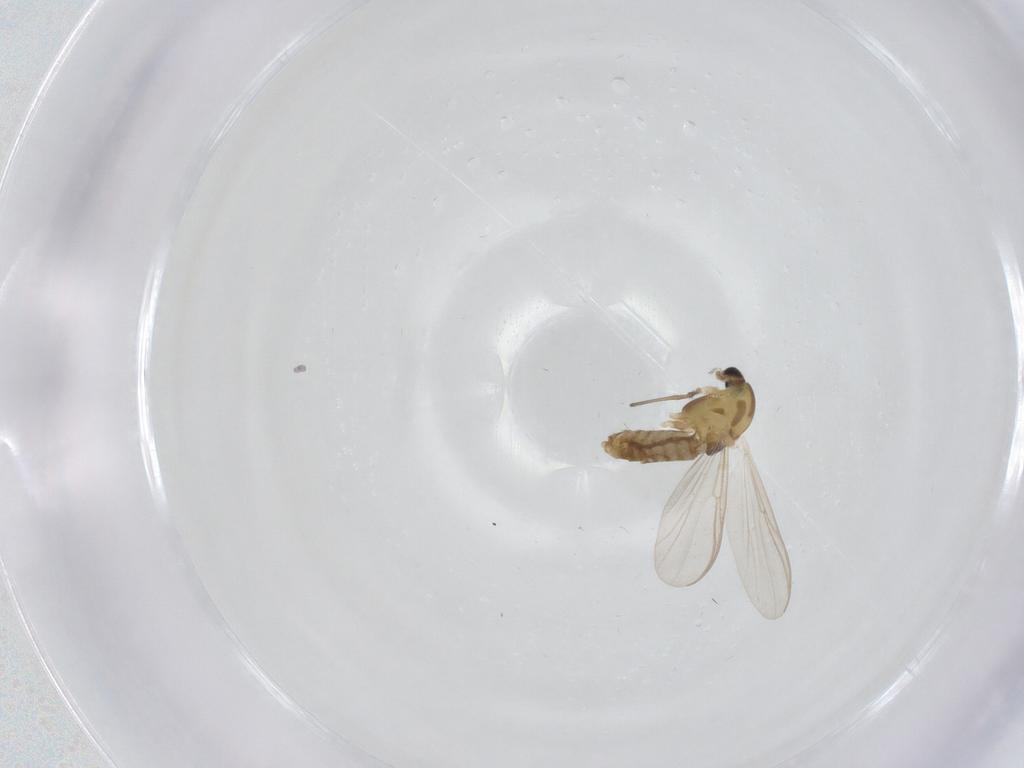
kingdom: Animalia
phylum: Arthropoda
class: Insecta
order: Diptera
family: Chironomidae
